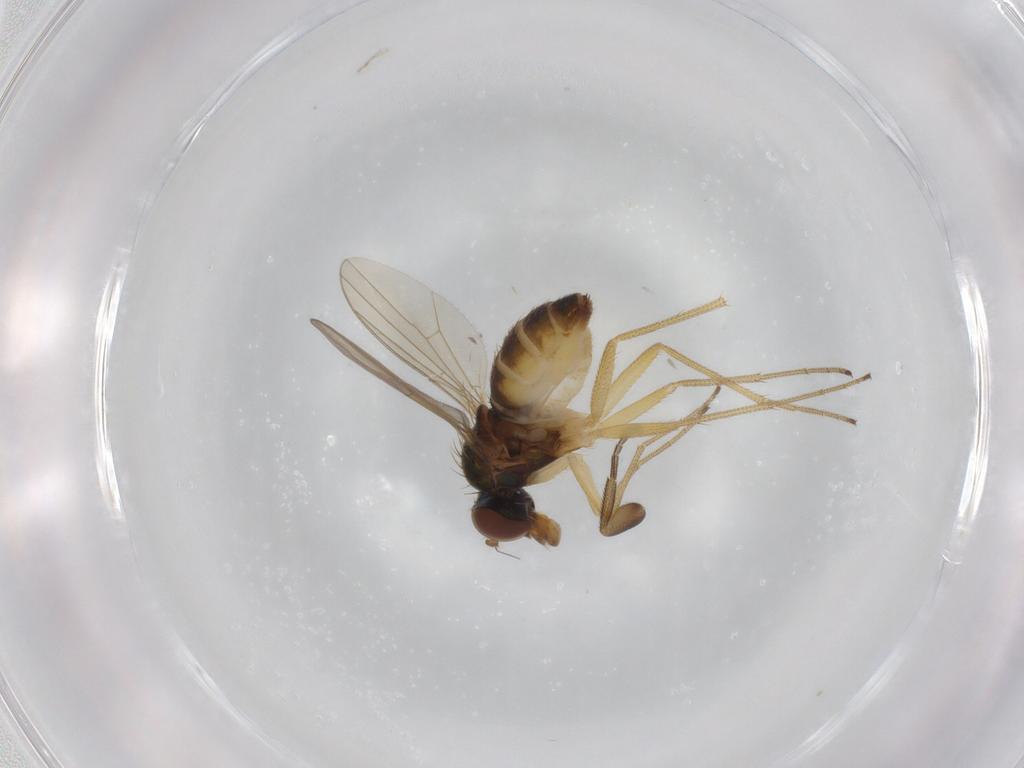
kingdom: Animalia
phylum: Arthropoda
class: Insecta
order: Diptera
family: Dolichopodidae
